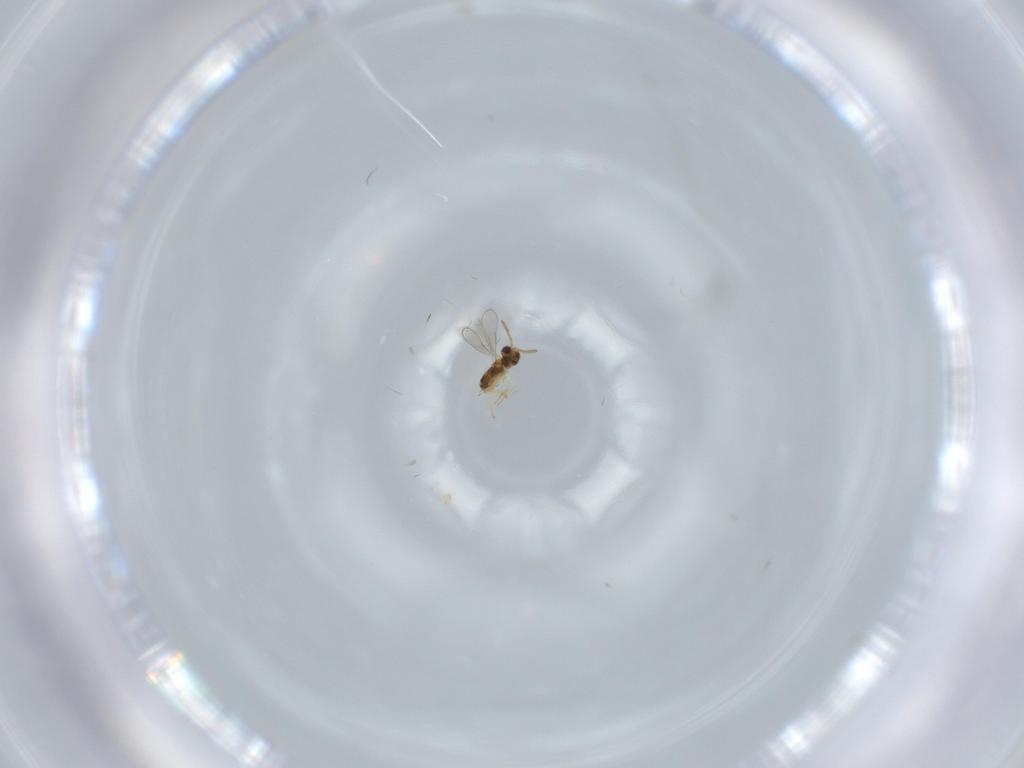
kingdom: Animalia
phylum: Arthropoda
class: Insecta
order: Hymenoptera
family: Aphelinidae
